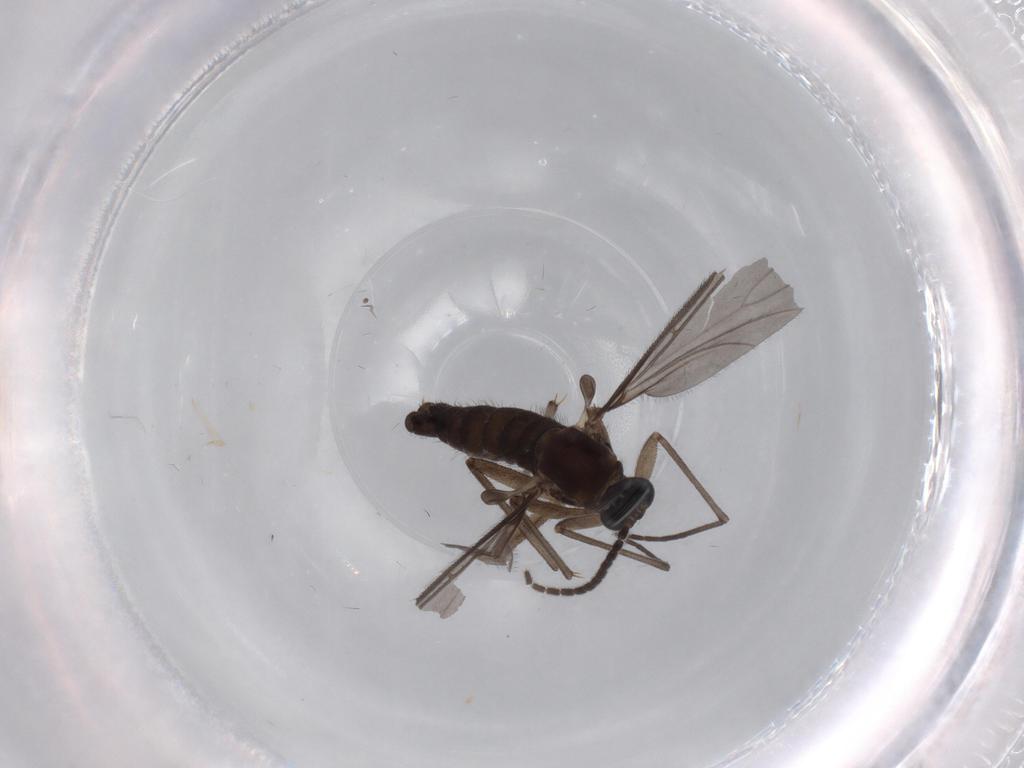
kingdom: Animalia
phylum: Arthropoda
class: Insecta
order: Diptera
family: Sciaridae
